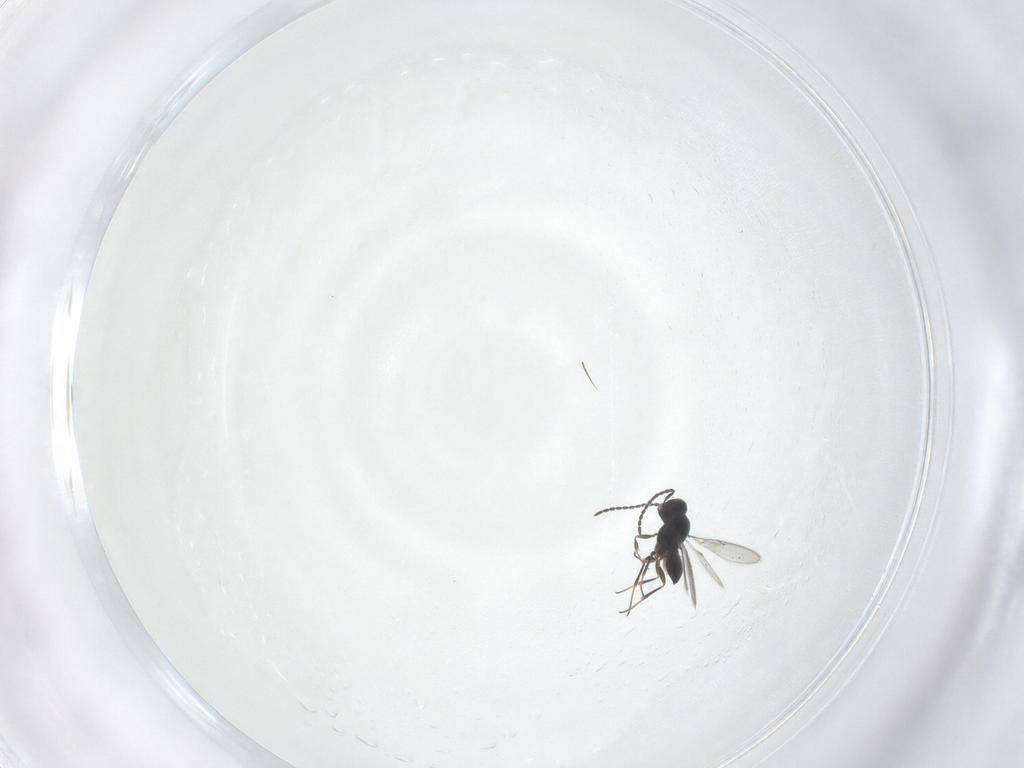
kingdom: Animalia
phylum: Arthropoda
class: Insecta
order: Hymenoptera
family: Scelionidae
